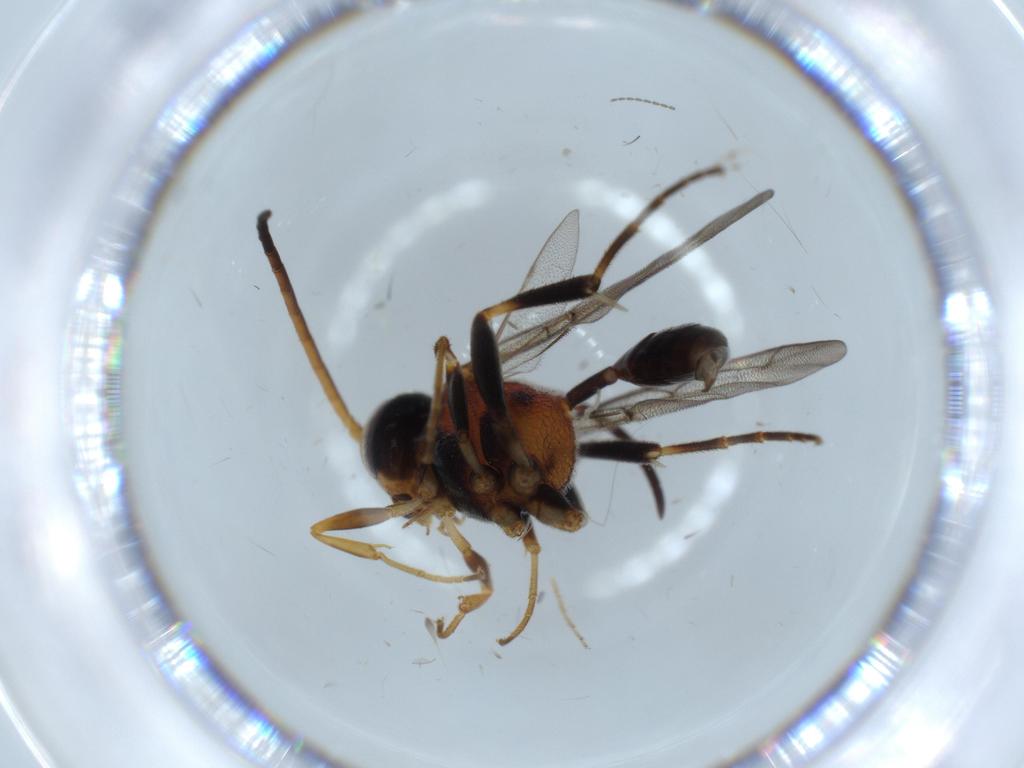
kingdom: Animalia
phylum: Arthropoda
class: Insecta
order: Hymenoptera
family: Evaniidae
